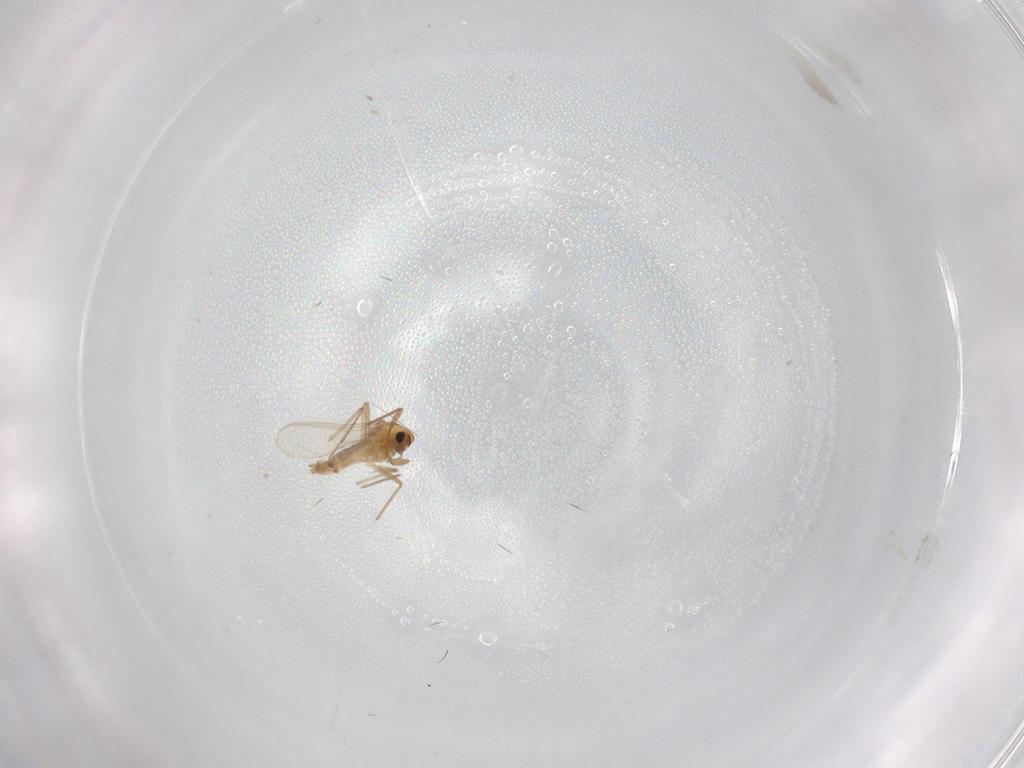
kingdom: Animalia
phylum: Arthropoda
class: Insecta
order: Diptera
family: Chironomidae
